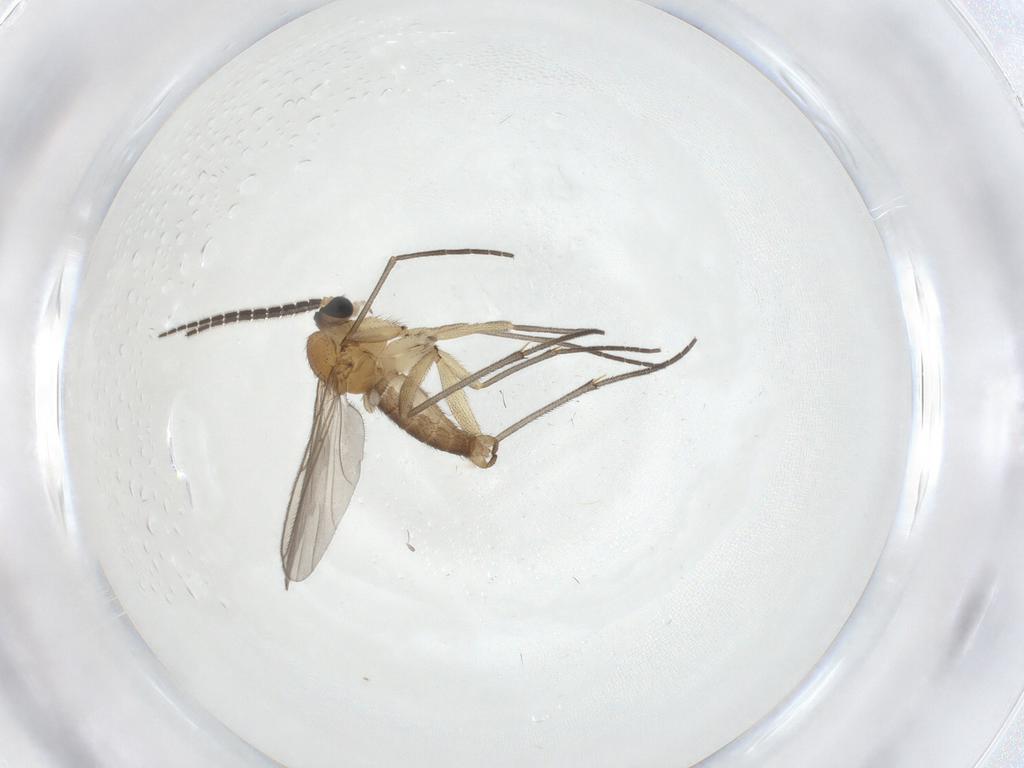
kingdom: Animalia
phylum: Arthropoda
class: Insecta
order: Diptera
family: Sciaridae
